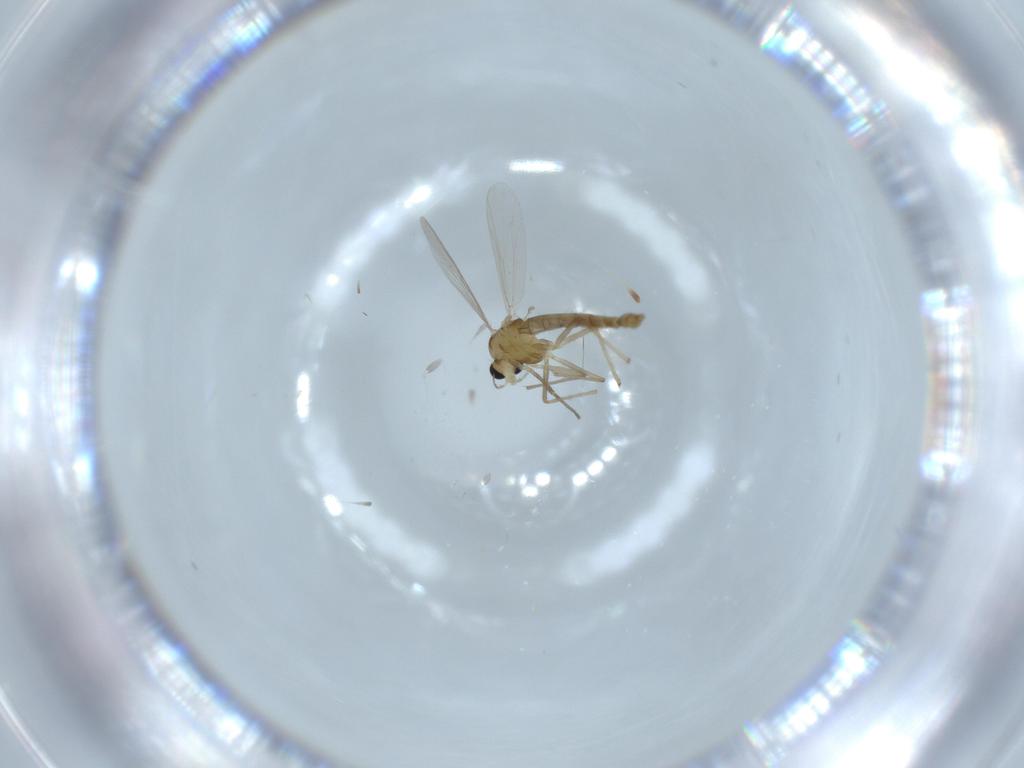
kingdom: Animalia
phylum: Arthropoda
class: Insecta
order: Diptera
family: Chironomidae
